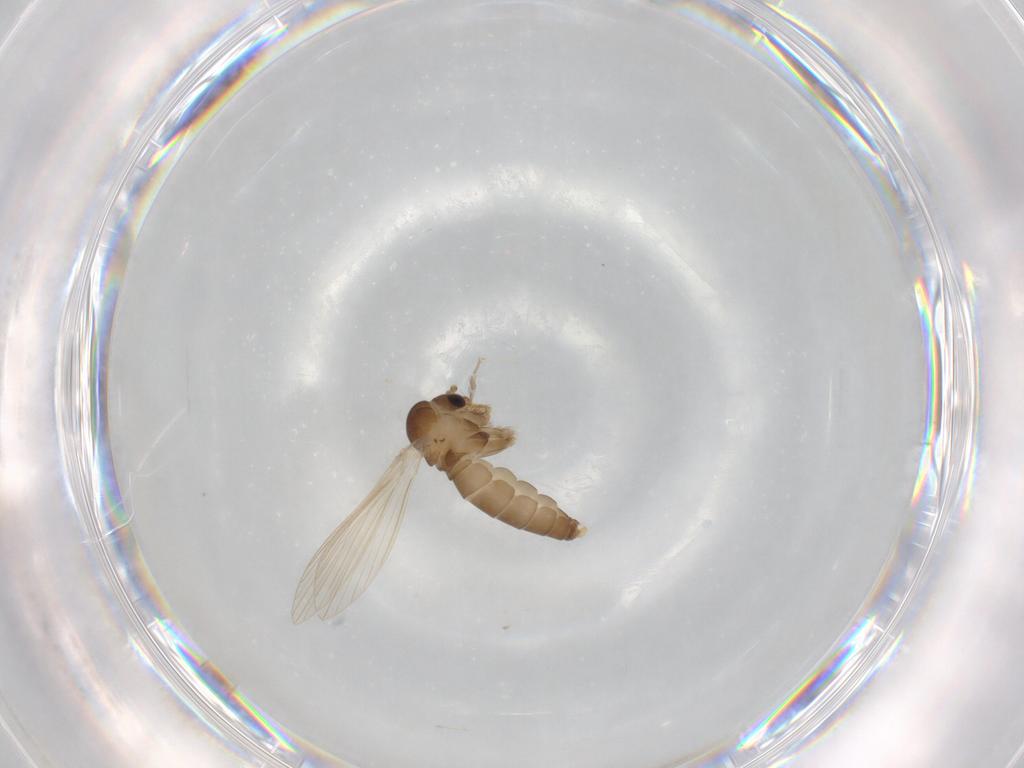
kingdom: Animalia
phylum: Arthropoda
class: Insecta
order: Diptera
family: Psychodidae
